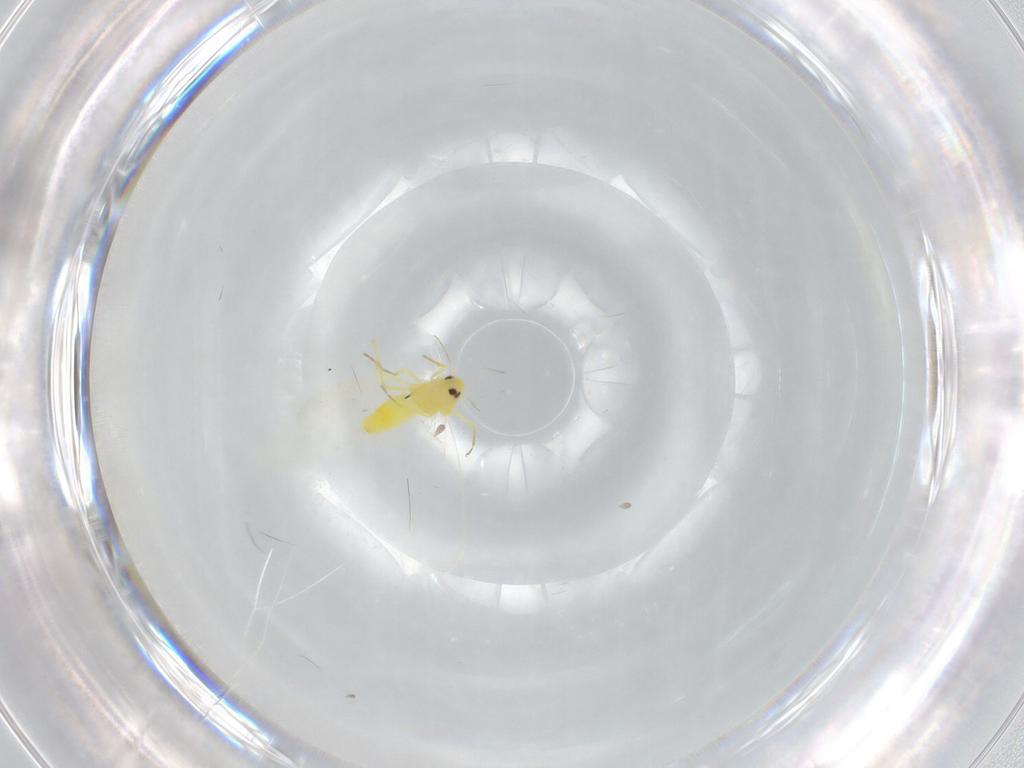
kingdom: Animalia
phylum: Arthropoda
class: Insecta
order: Hemiptera
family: Aleyrodidae
